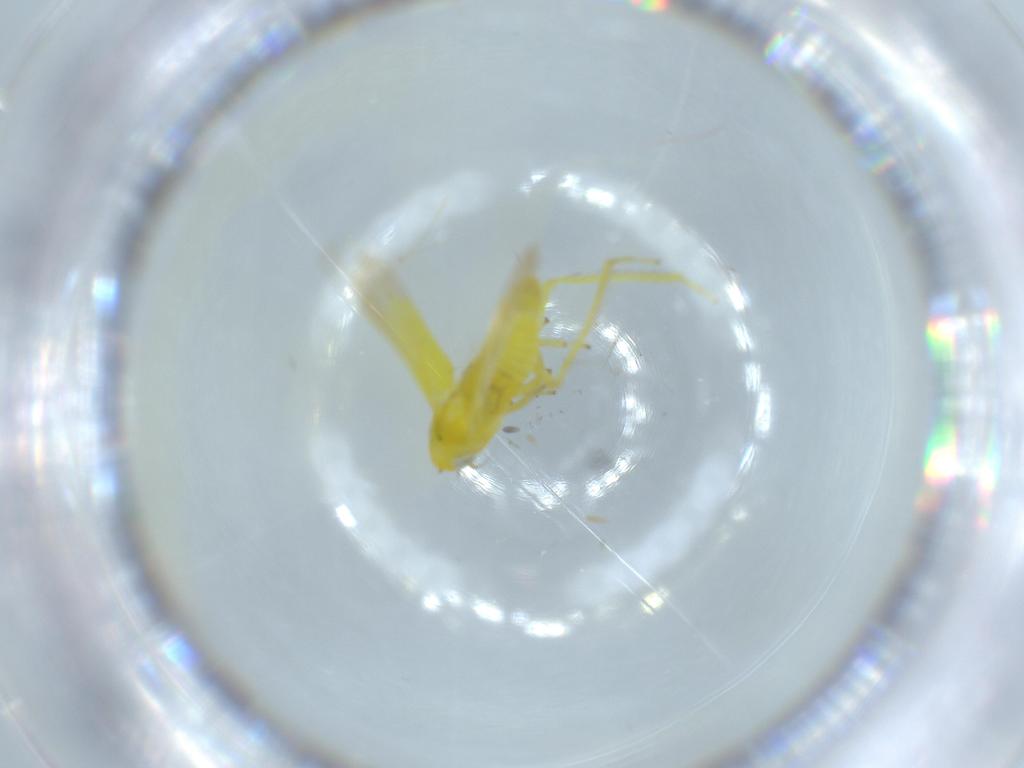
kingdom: Animalia
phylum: Arthropoda
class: Insecta
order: Hemiptera
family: Cicadellidae
